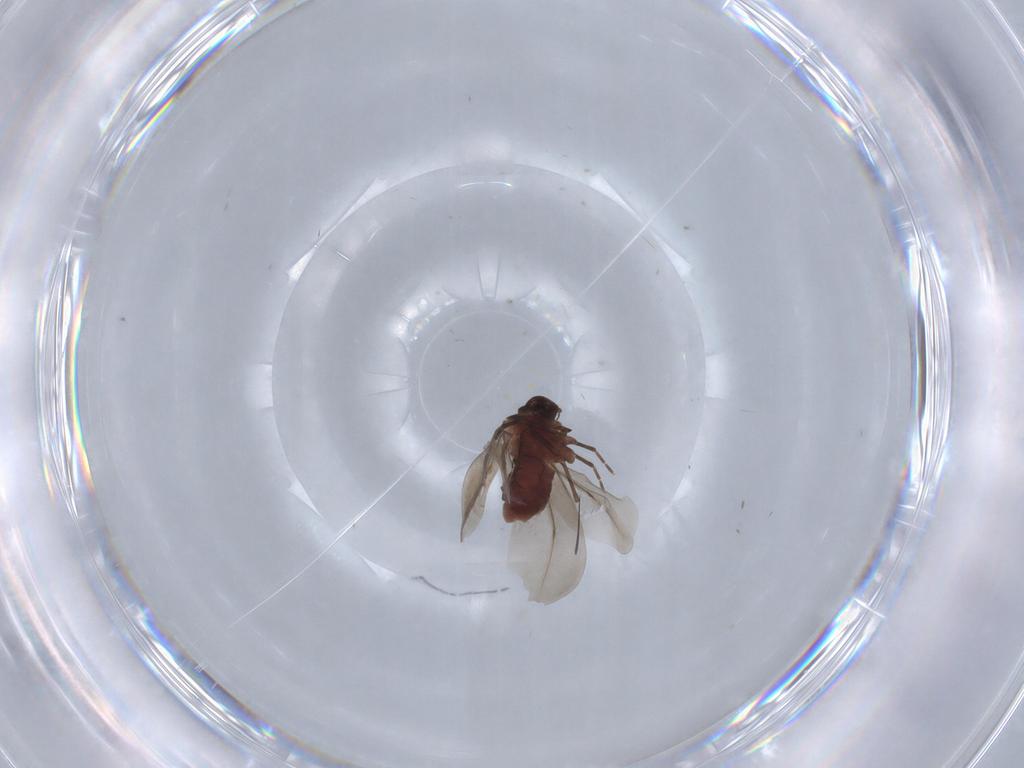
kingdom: Animalia
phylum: Arthropoda
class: Insecta
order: Hemiptera
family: Aleyrodidae
